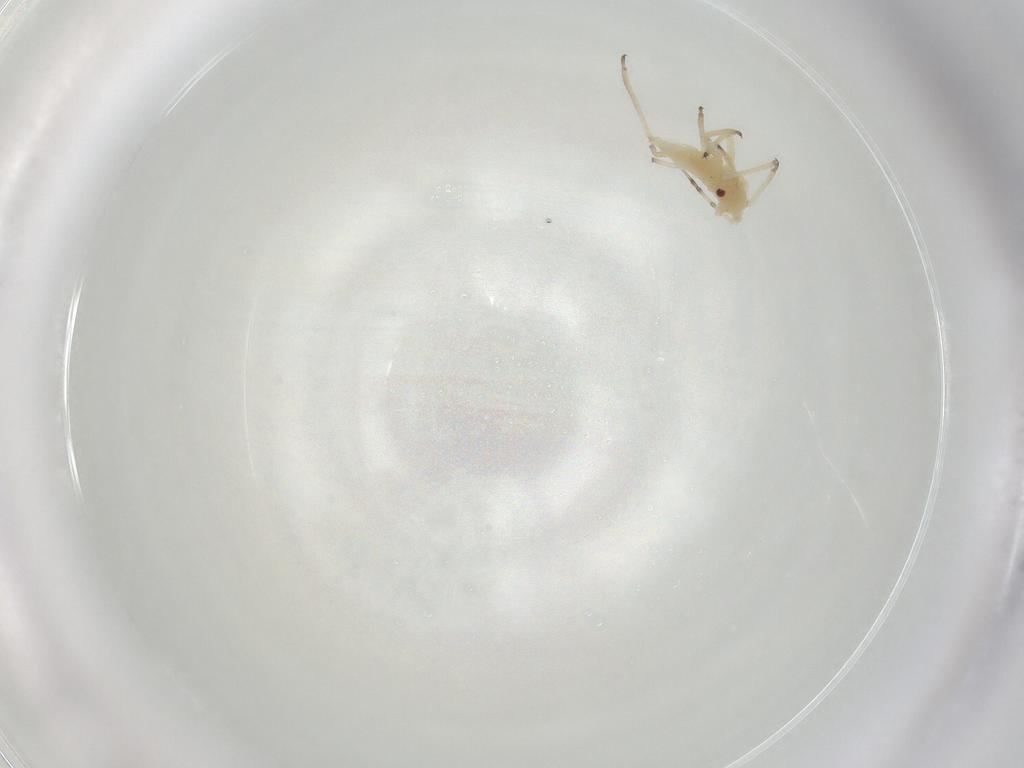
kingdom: Animalia
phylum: Arthropoda
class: Insecta
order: Hemiptera
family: Aphididae
